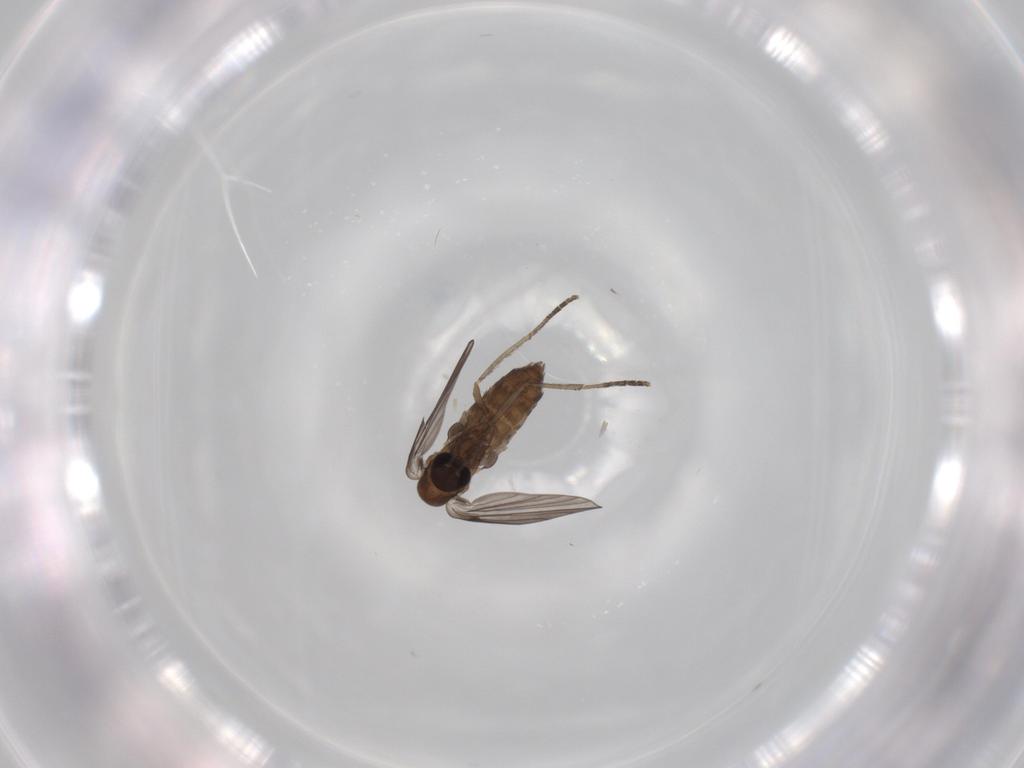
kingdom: Animalia
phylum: Arthropoda
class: Insecta
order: Diptera
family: Psychodidae
